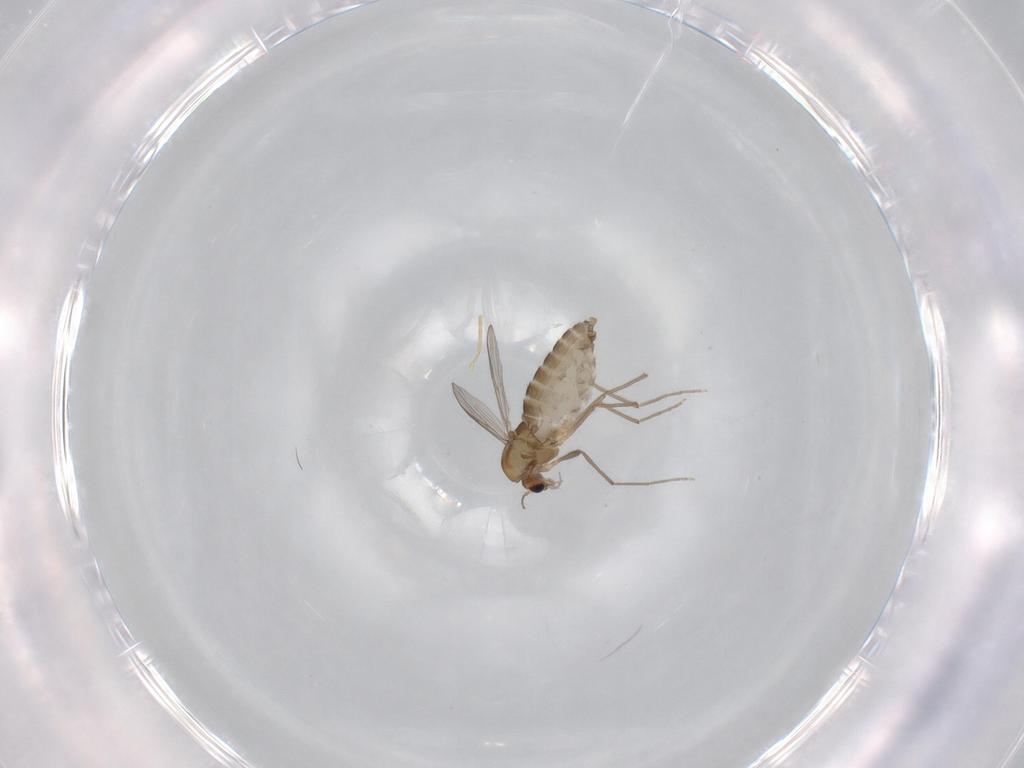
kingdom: Animalia
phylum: Arthropoda
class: Insecta
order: Diptera
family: Chironomidae
